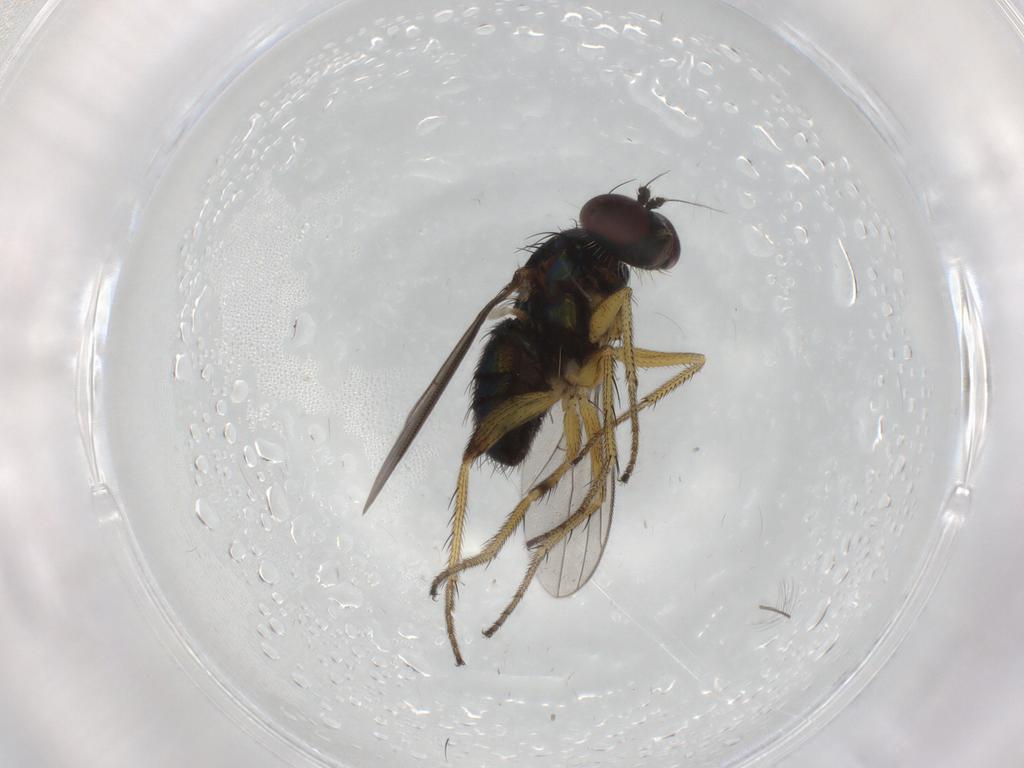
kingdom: Animalia
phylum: Arthropoda
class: Insecta
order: Diptera
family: Dolichopodidae
